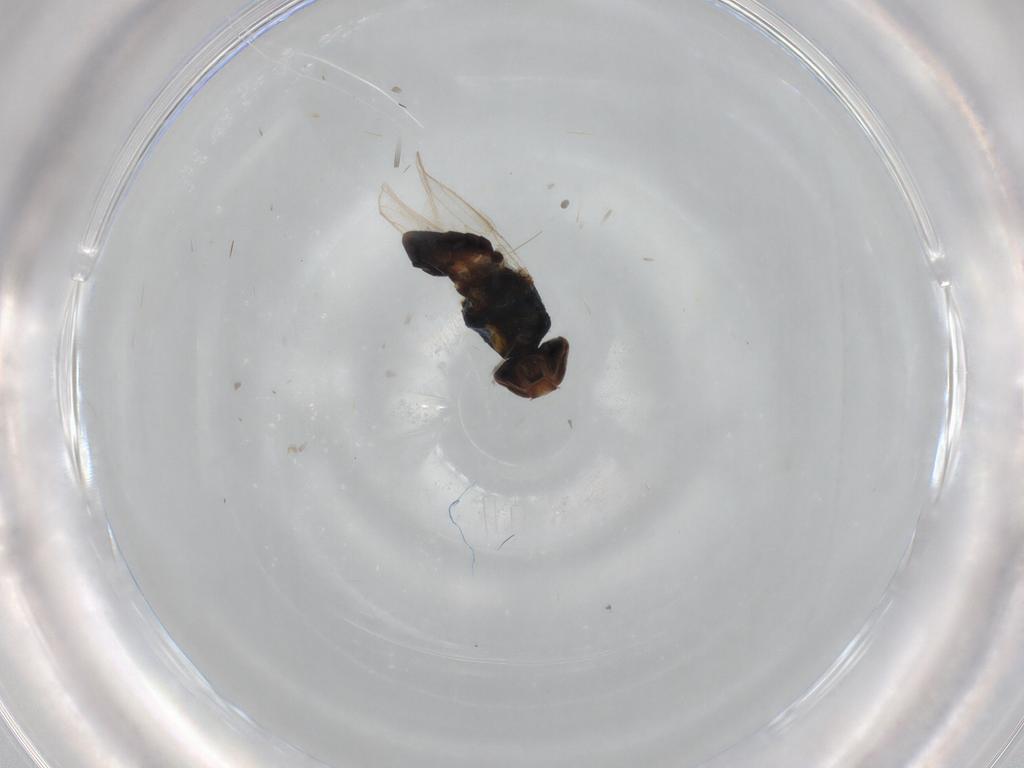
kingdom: Animalia
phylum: Arthropoda
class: Insecta
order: Diptera
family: Chloropidae
